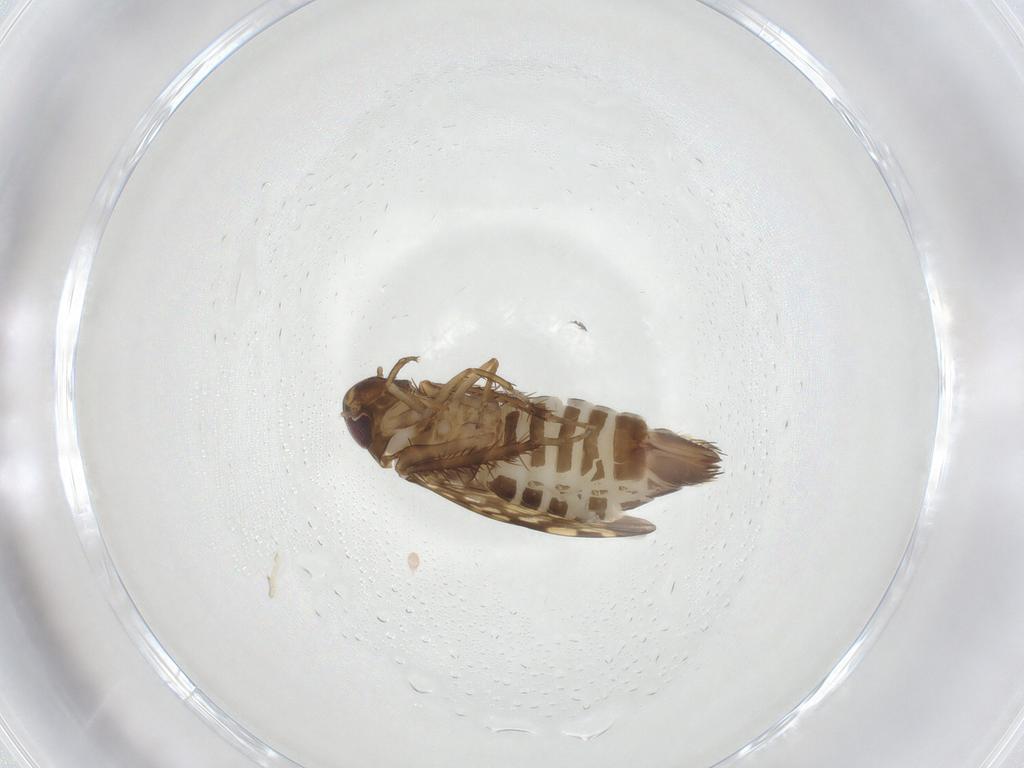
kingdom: Animalia
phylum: Arthropoda
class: Insecta
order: Hemiptera
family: Cicadellidae
